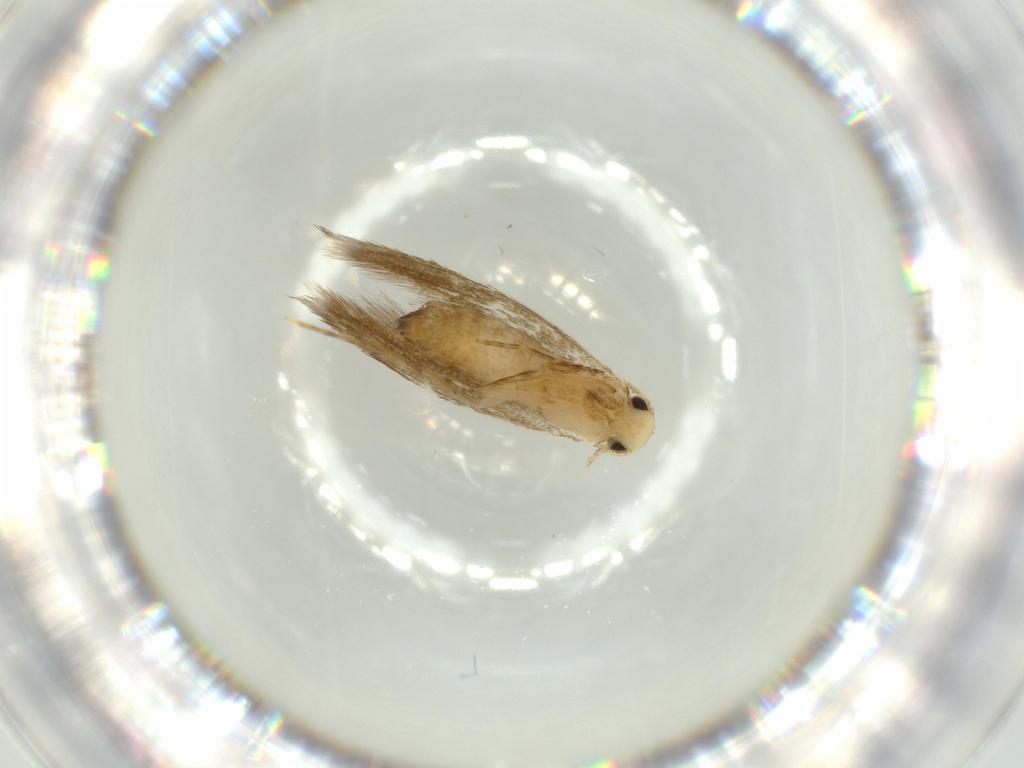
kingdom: Animalia
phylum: Arthropoda
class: Insecta
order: Lepidoptera
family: Tineidae
